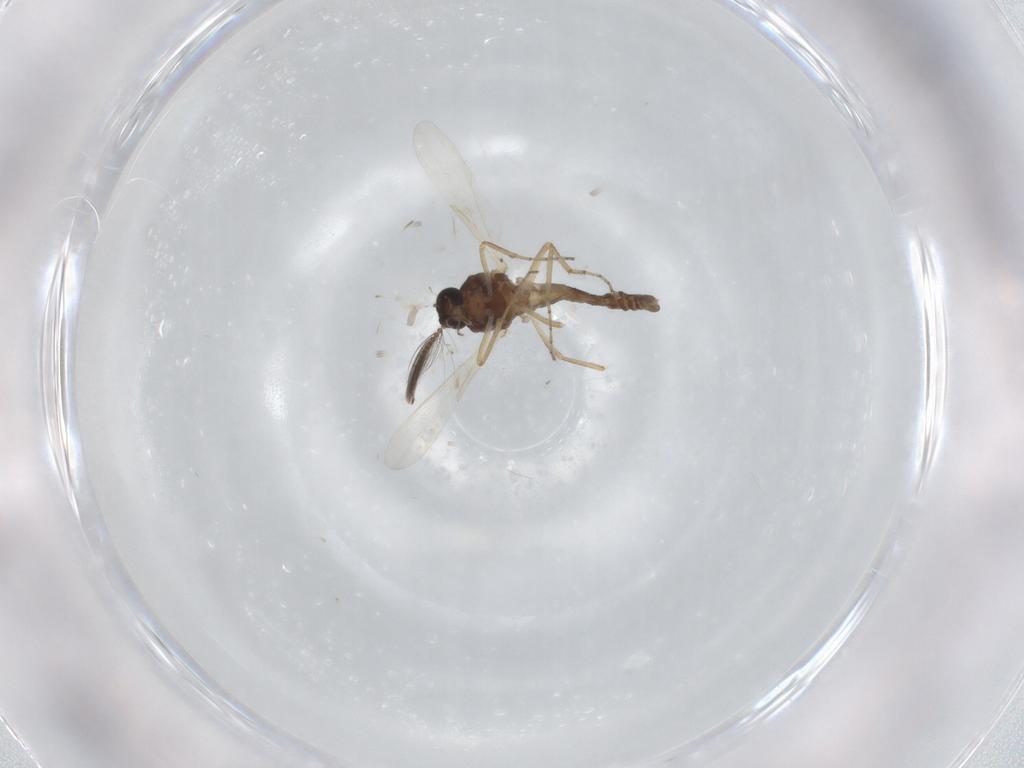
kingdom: Animalia
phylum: Arthropoda
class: Insecta
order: Diptera
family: Ceratopogonidae
